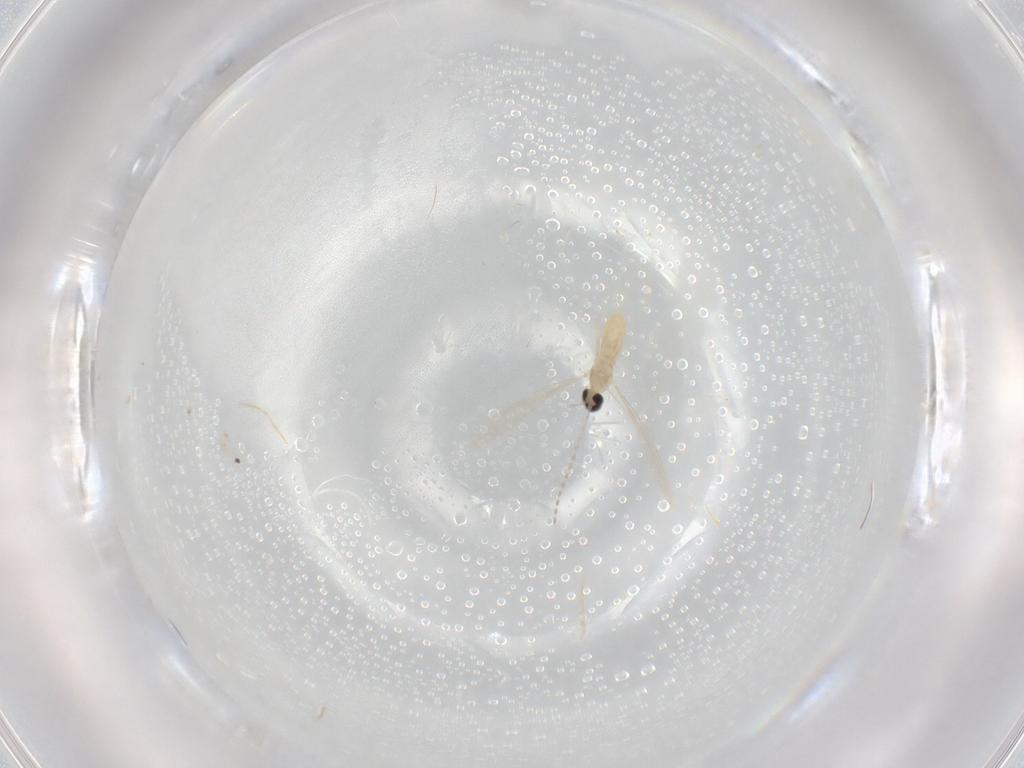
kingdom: Animalia
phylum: Arthropoda
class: Insecta
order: Diptera
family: Cecidomyiidae
